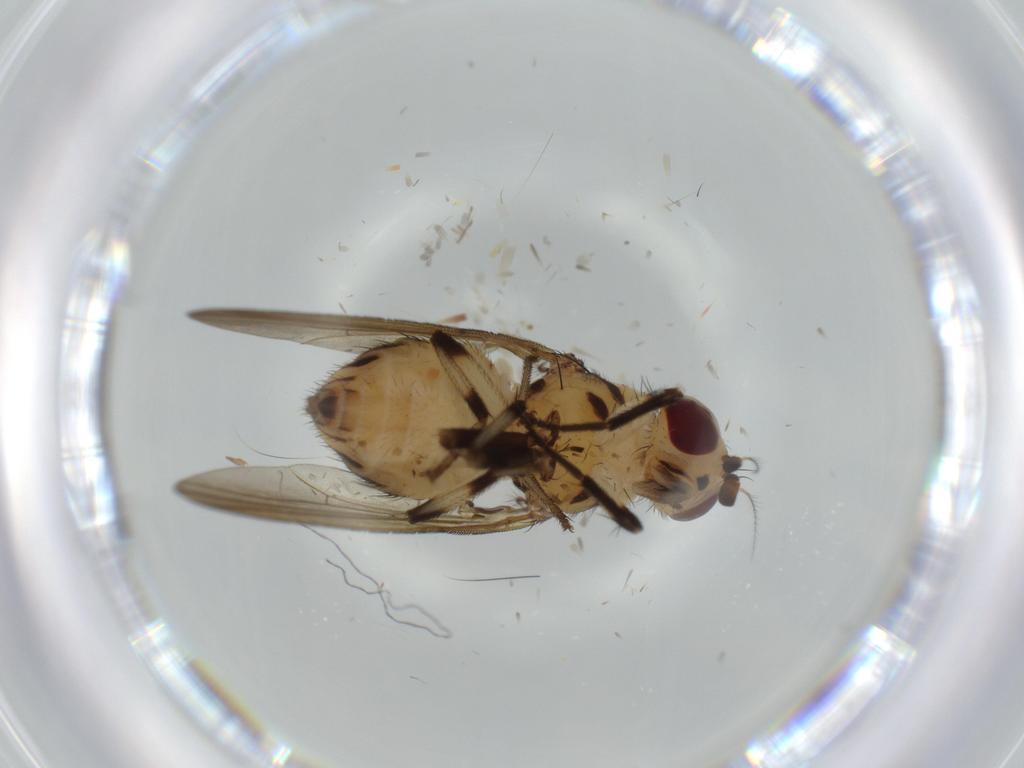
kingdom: Animalia
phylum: Arthropoda
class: Insecta
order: Diptera
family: Lauxaniidae
